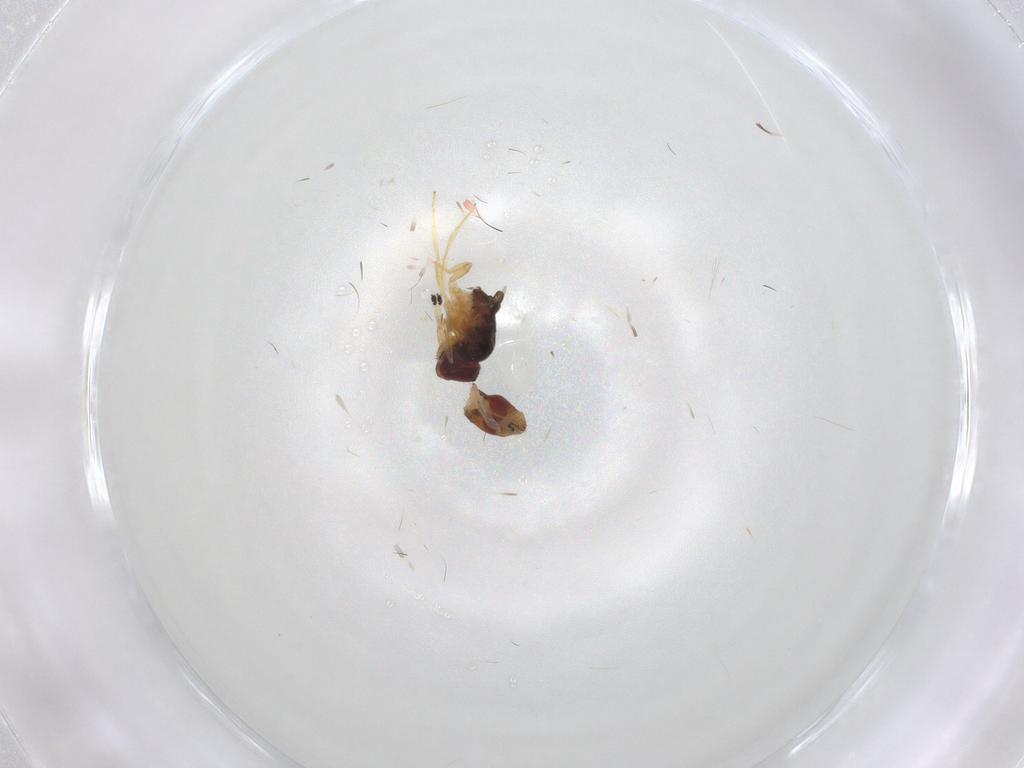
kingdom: Animalia
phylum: Arthropoda
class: Insecta
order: Diptera
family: Asteiidae
